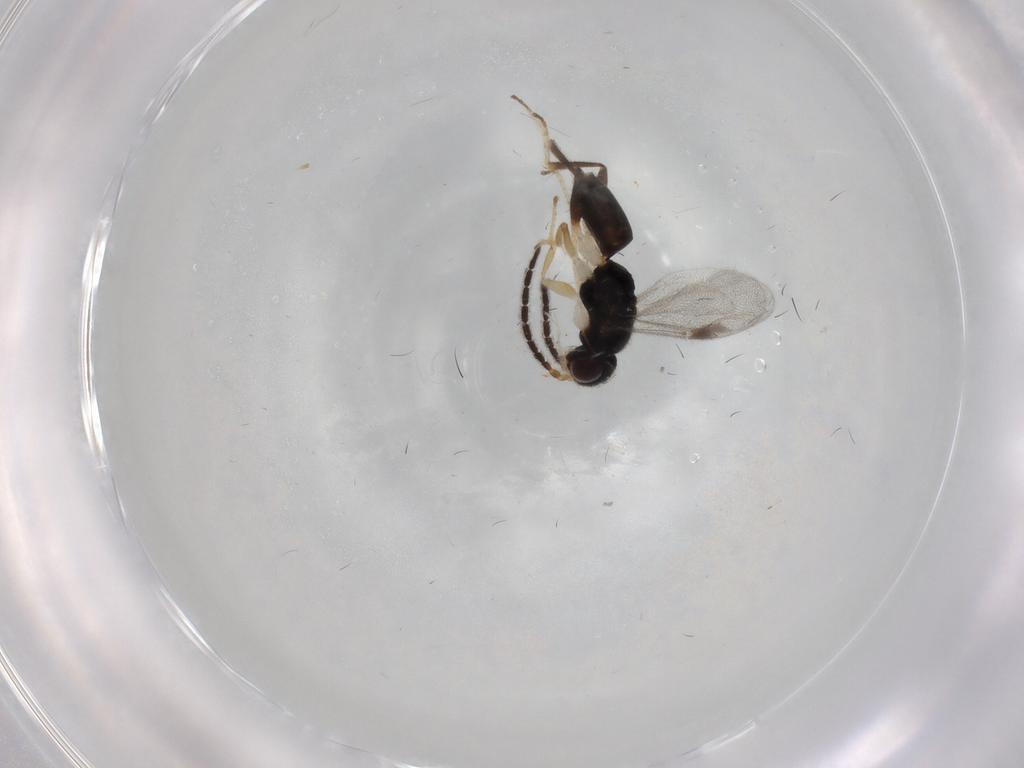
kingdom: Animalia
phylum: Arthropoda
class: Insecta
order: Hymenoptera
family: Dryinidae
